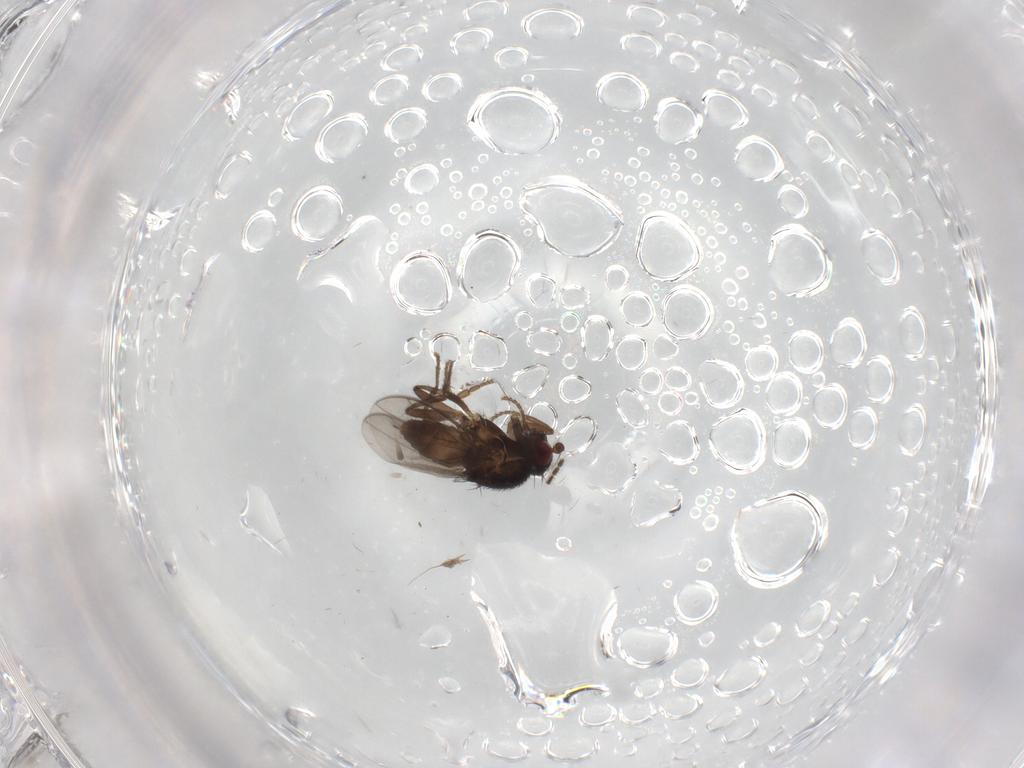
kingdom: Animalia
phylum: Arthropoda
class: Insecta
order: Diptera
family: Sciaridae
